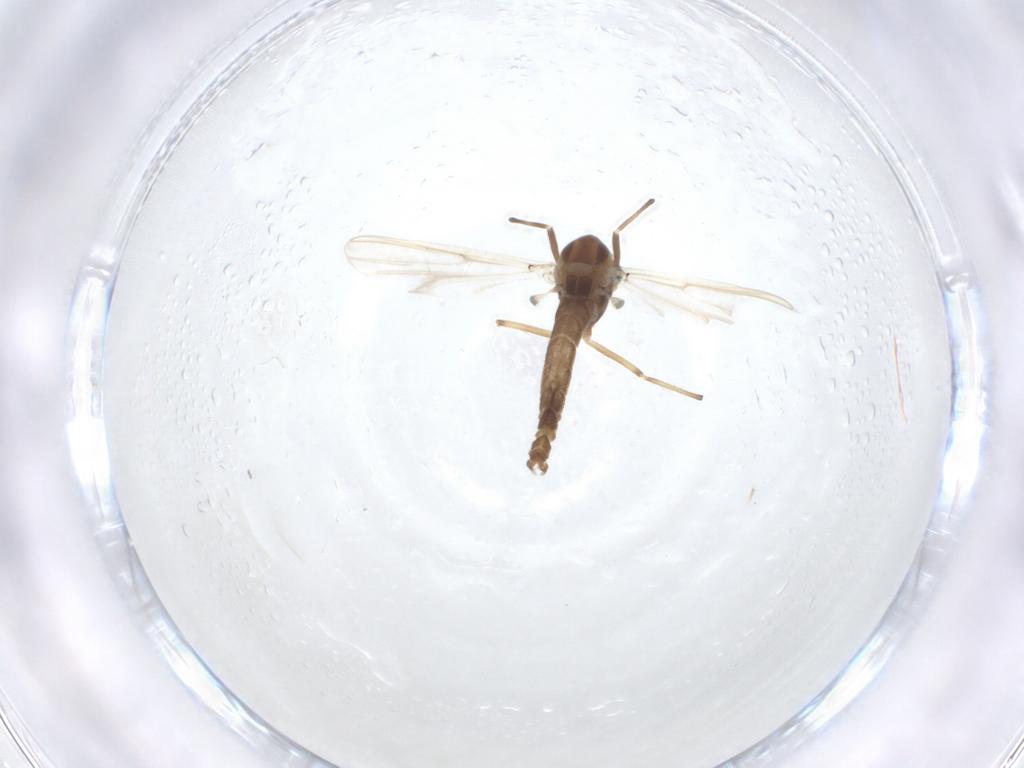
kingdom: Animalia
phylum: Arthropoda
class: Insecta
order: Diptera
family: Chironomidae
